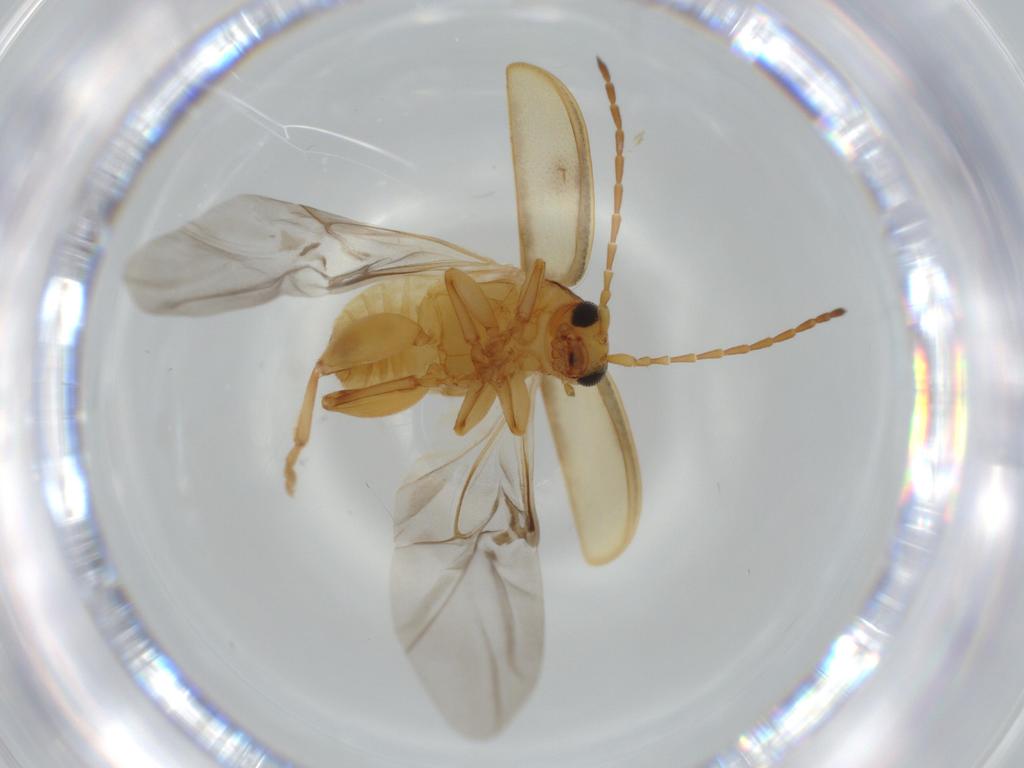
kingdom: Animalia
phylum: Arthropoda
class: Insecta
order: Coleoptera
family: Chrysomelidae
